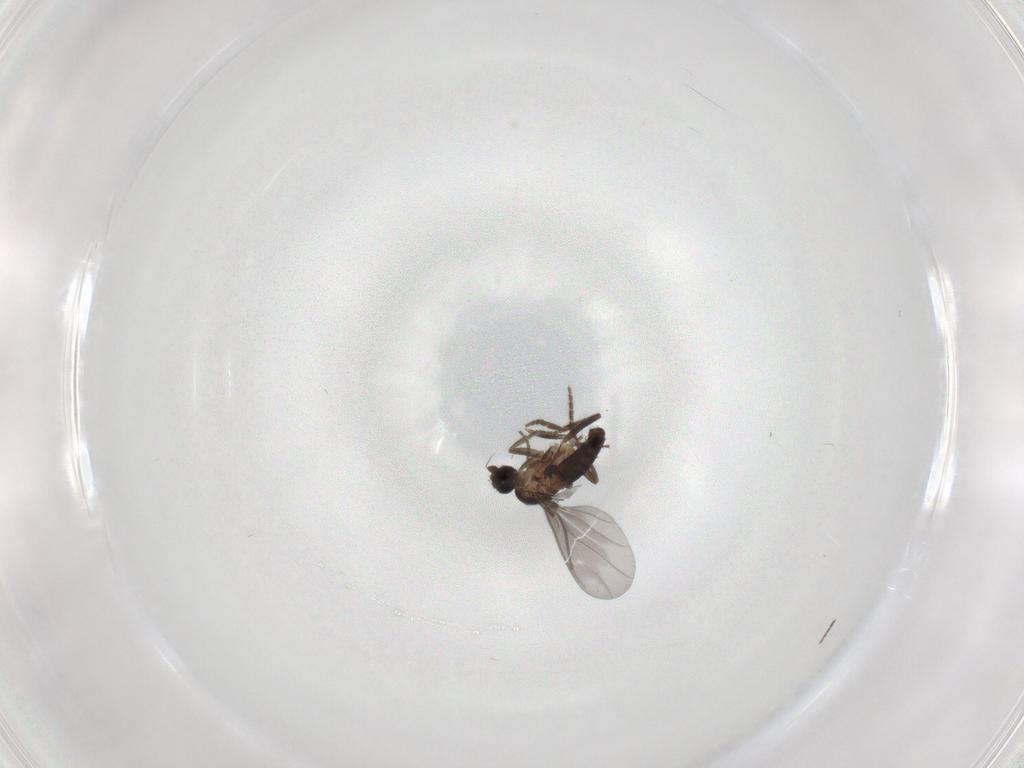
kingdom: Animalia
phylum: Arthropoda
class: Insecta
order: Diptera
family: Phoridae
